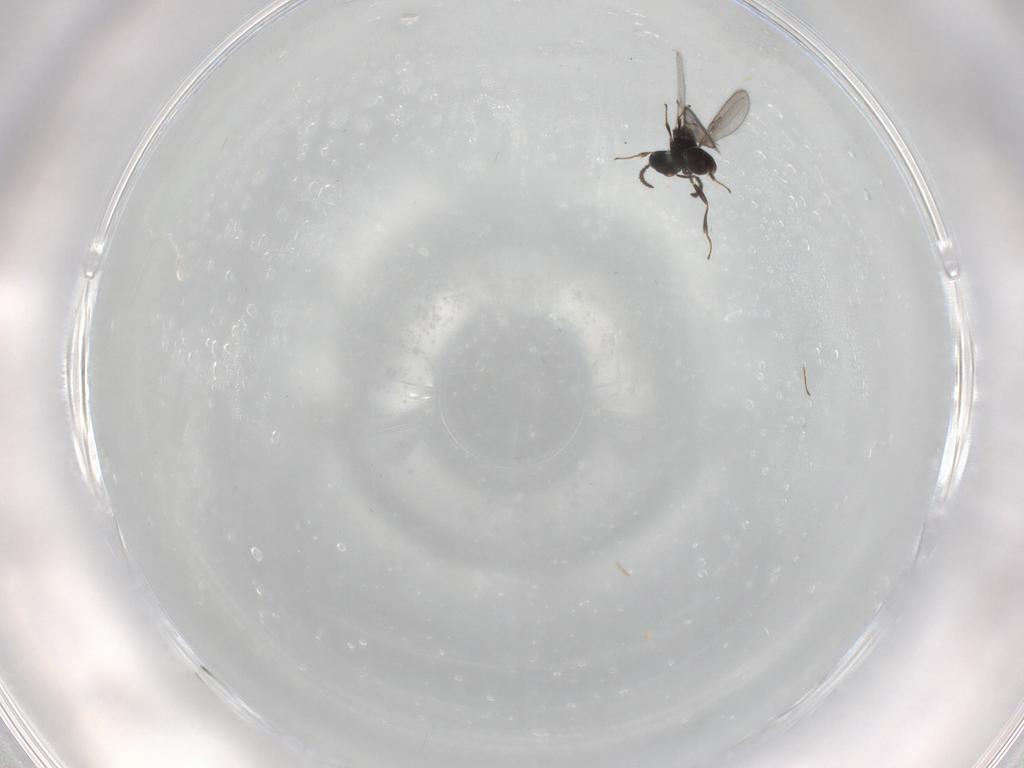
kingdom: Animalia
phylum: Arthropoda
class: Insecta
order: Hymenoptera
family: Scelionidae
